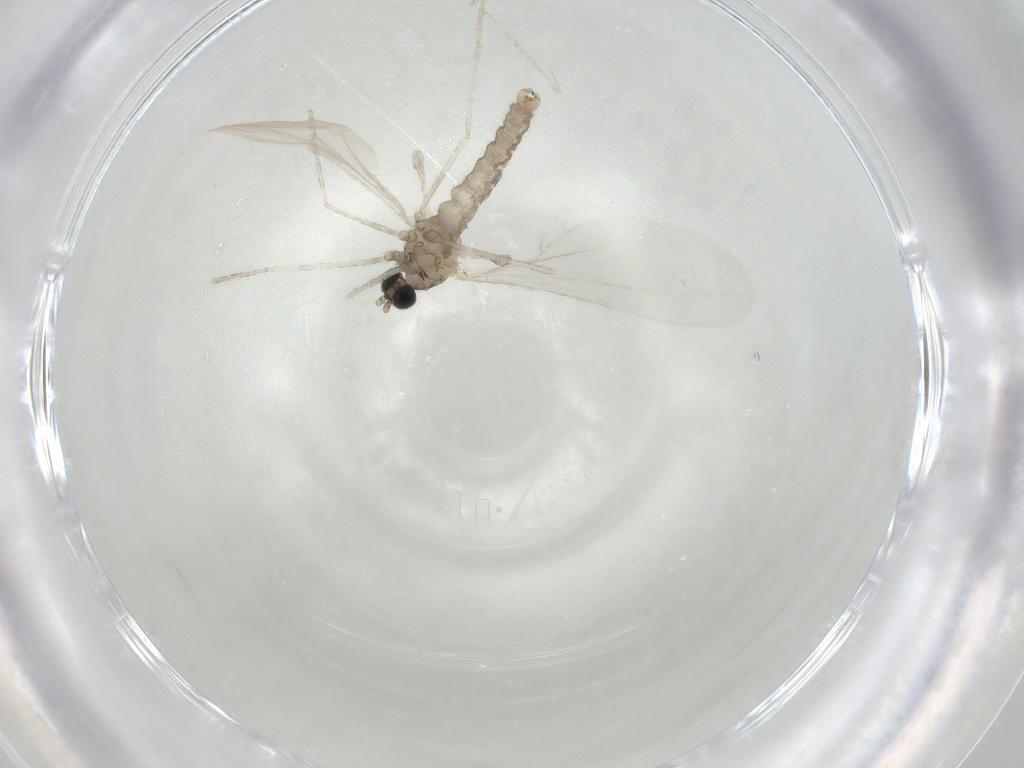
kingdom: Animalia
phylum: Arthropoda
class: Insecta
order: Diptera
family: Cecidomyiidae
